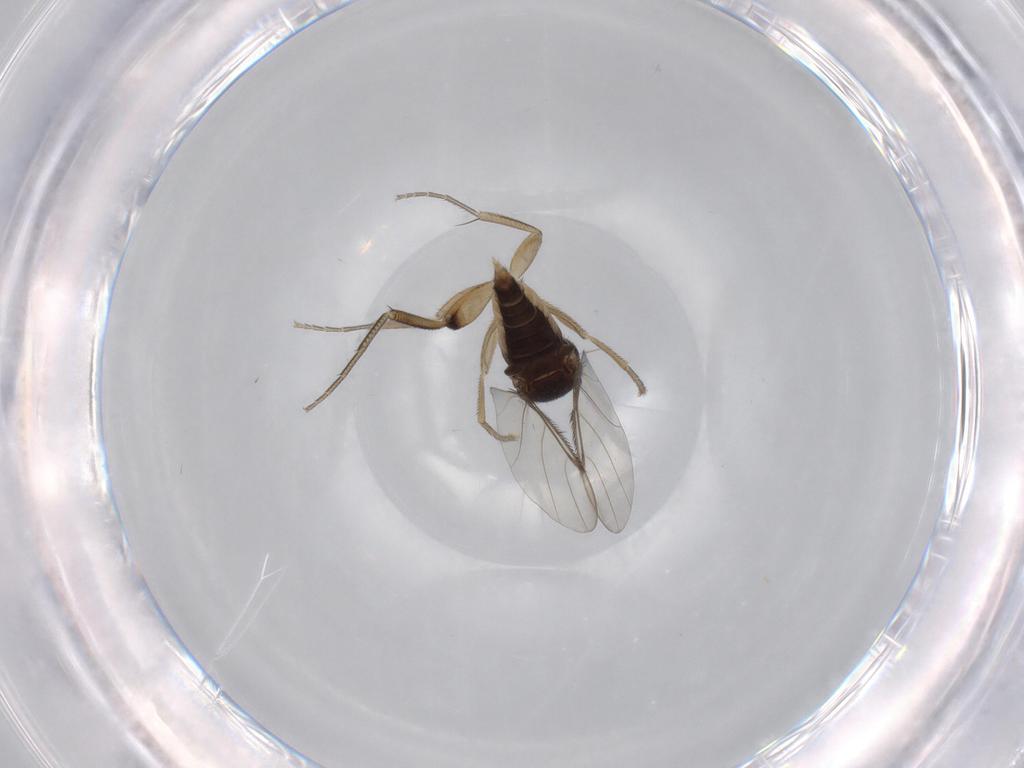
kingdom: Animalia
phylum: Arthropoda
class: Insecta
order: Diptera
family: Phoridae
